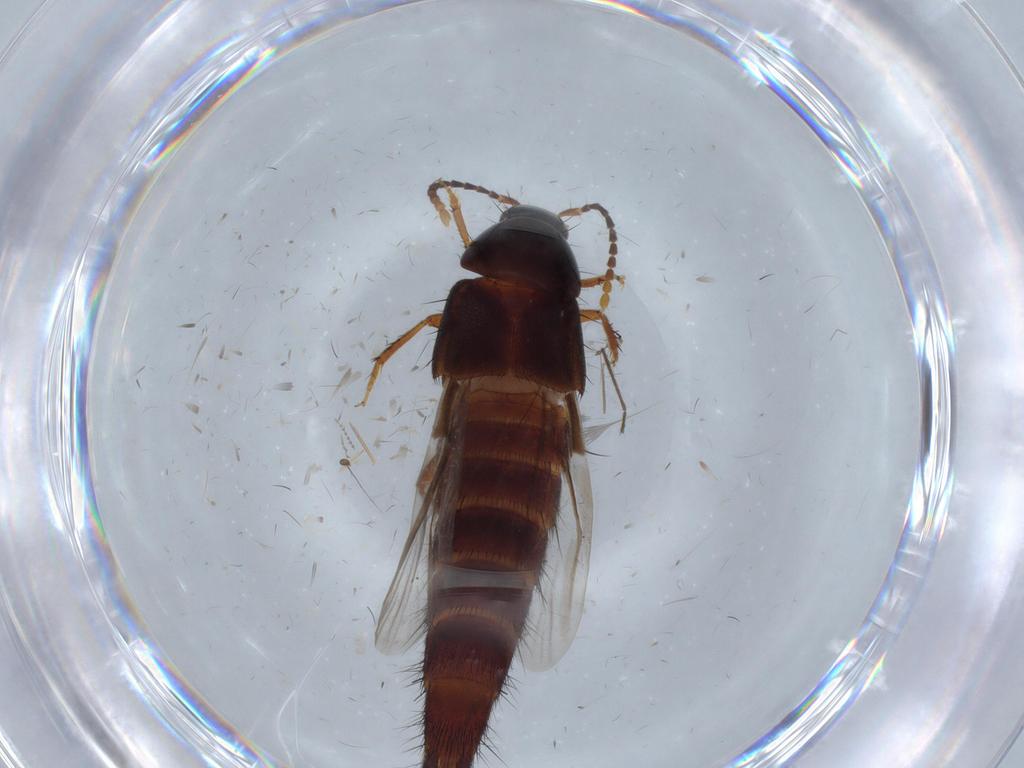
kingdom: Animalia
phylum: Arthropoda
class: Insecta
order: Coleoptera
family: Staphylinidae
